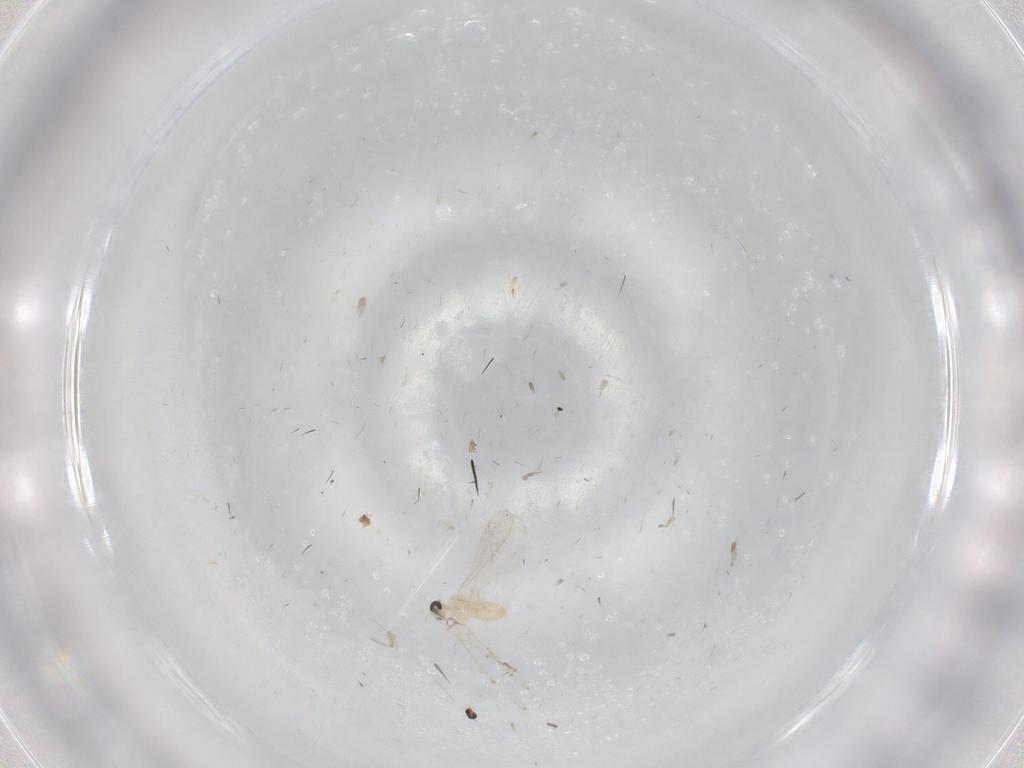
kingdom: Animalia
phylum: Arthropoda
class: Insecta
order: Diptera
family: Cecidomyiidae
